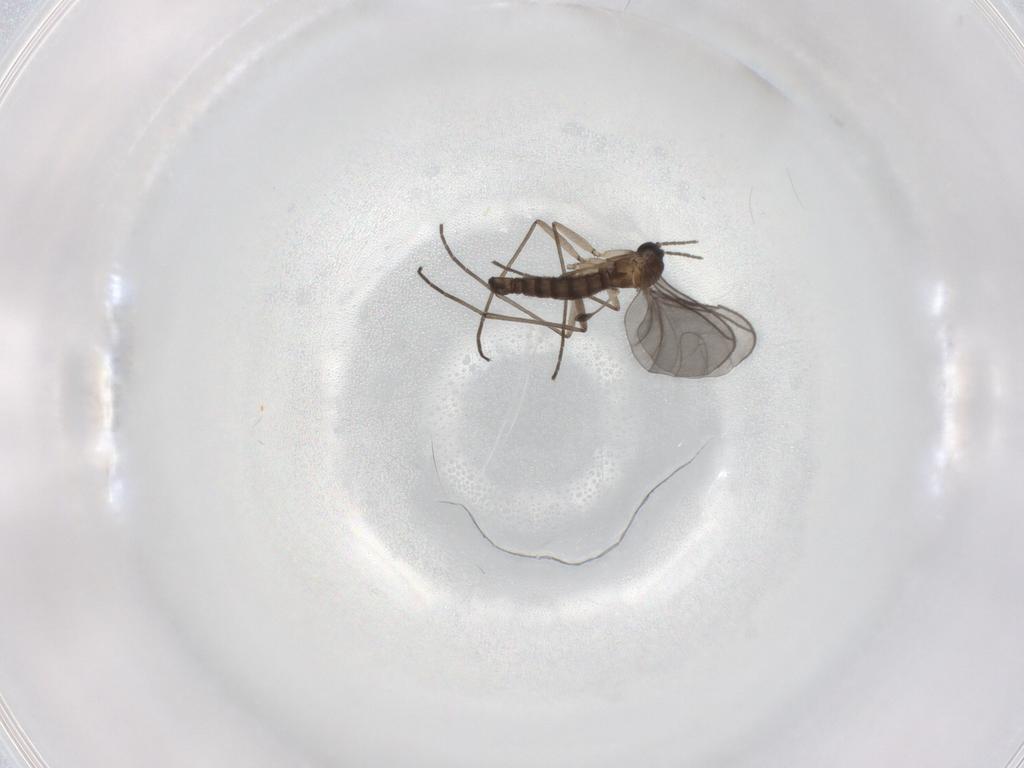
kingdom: Animalia
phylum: Arthropoda
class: Insecta
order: Diptera
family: Sciaridae
